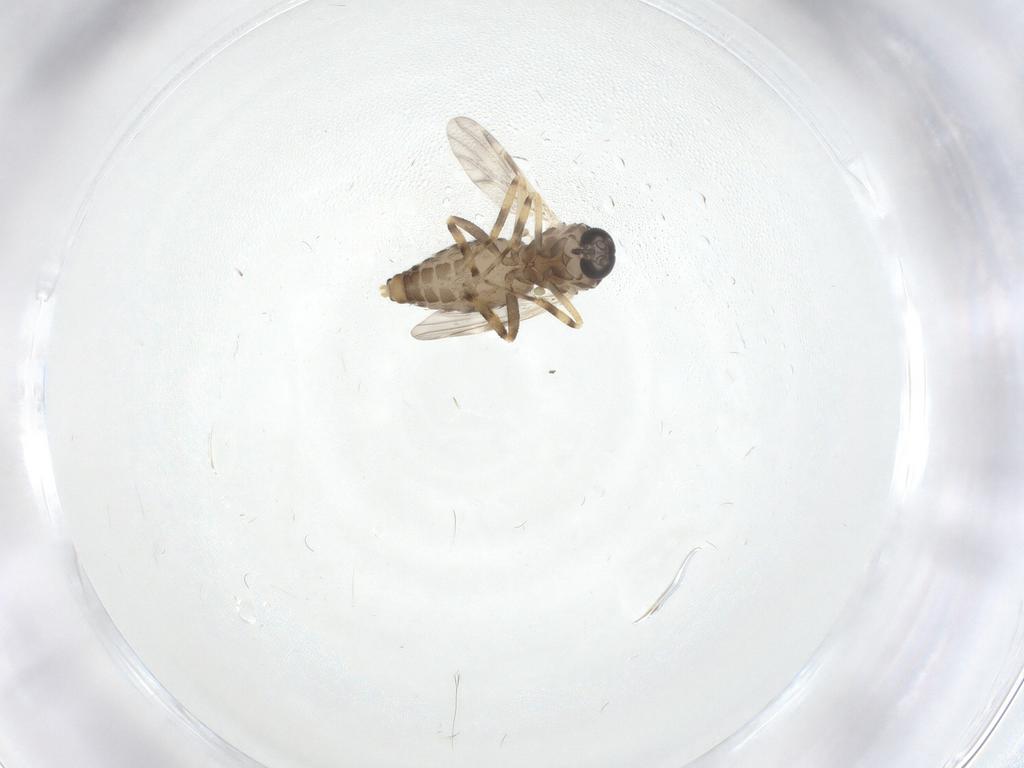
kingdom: Animalia
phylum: Arthropoda
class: Insecta
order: Diptera
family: Ceratopogonidae
